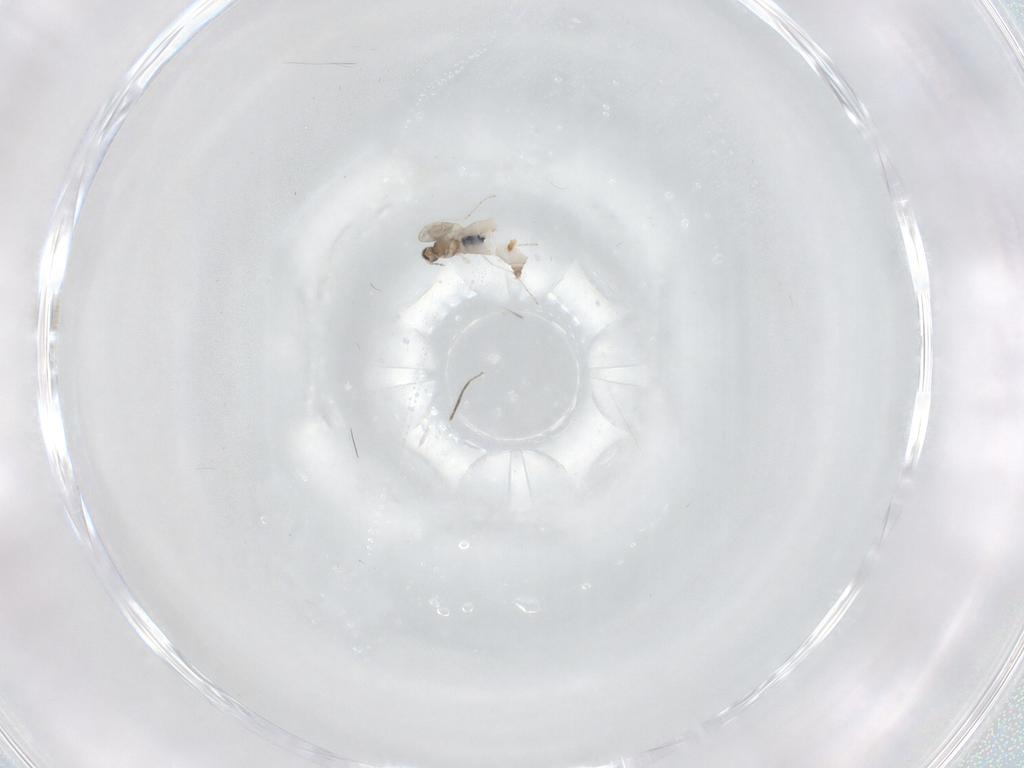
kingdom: Animalia
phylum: Arthropoda
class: Insecta
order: Diptera
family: Cecidomyiidae
